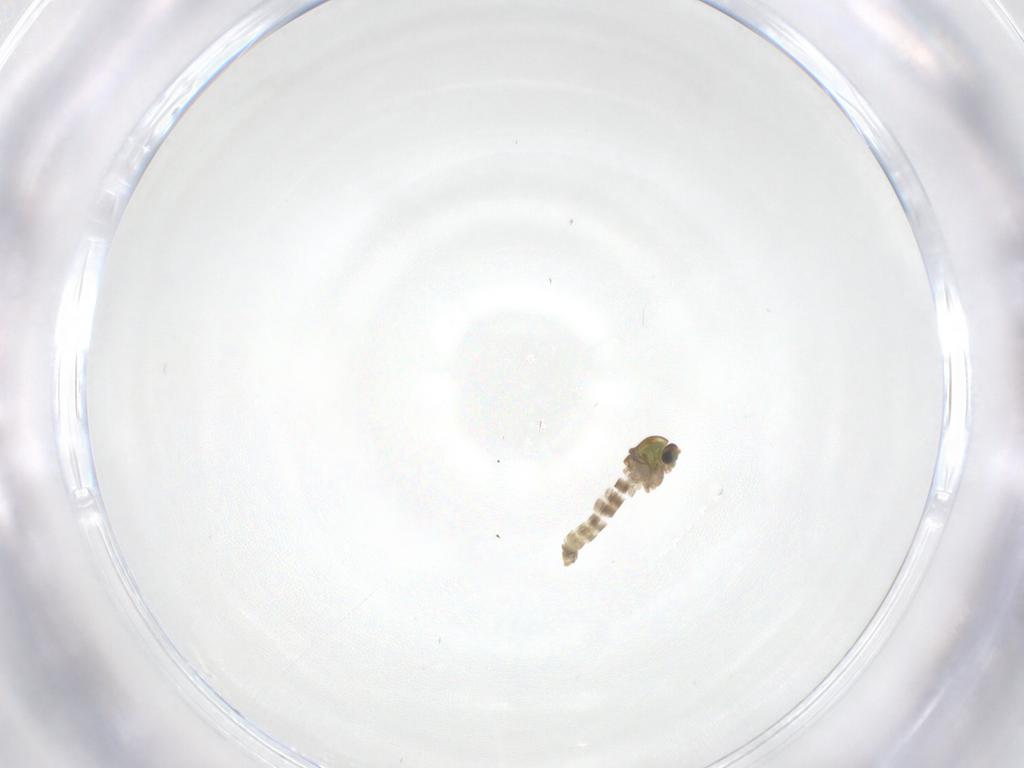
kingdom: Animalia
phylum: Arthropoda
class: Insecta
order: Diptera
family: Chironomidae
